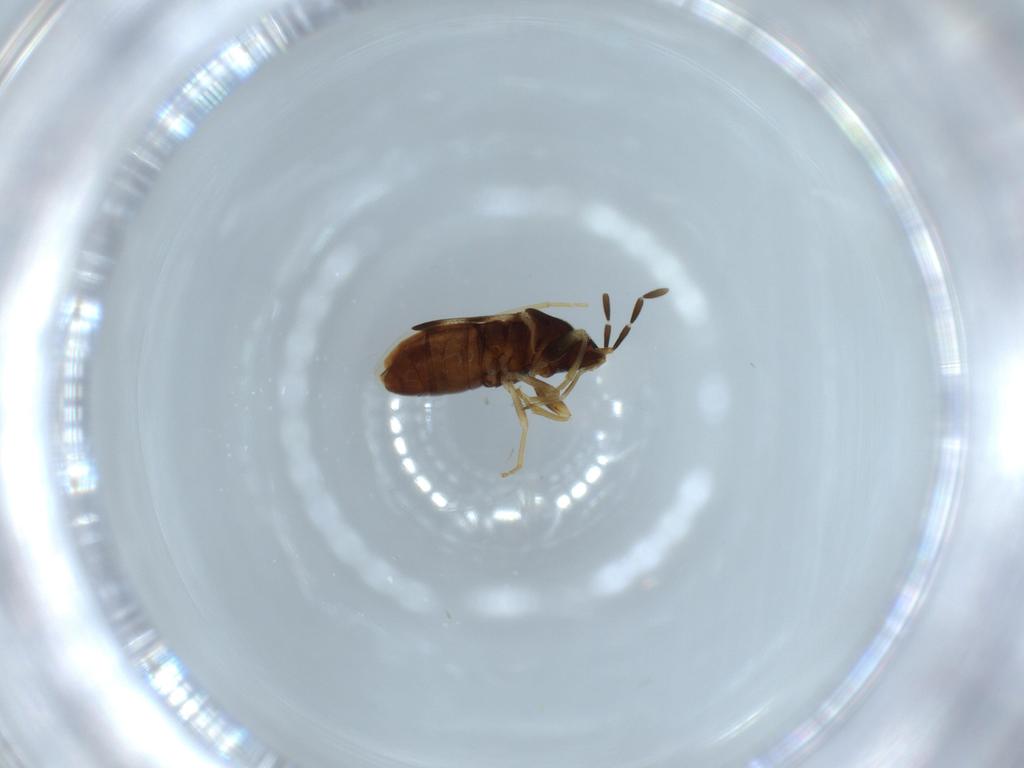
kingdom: Animalia
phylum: Arthropoda
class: Insecta
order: Hemiptera
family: Rhyparochromidae
